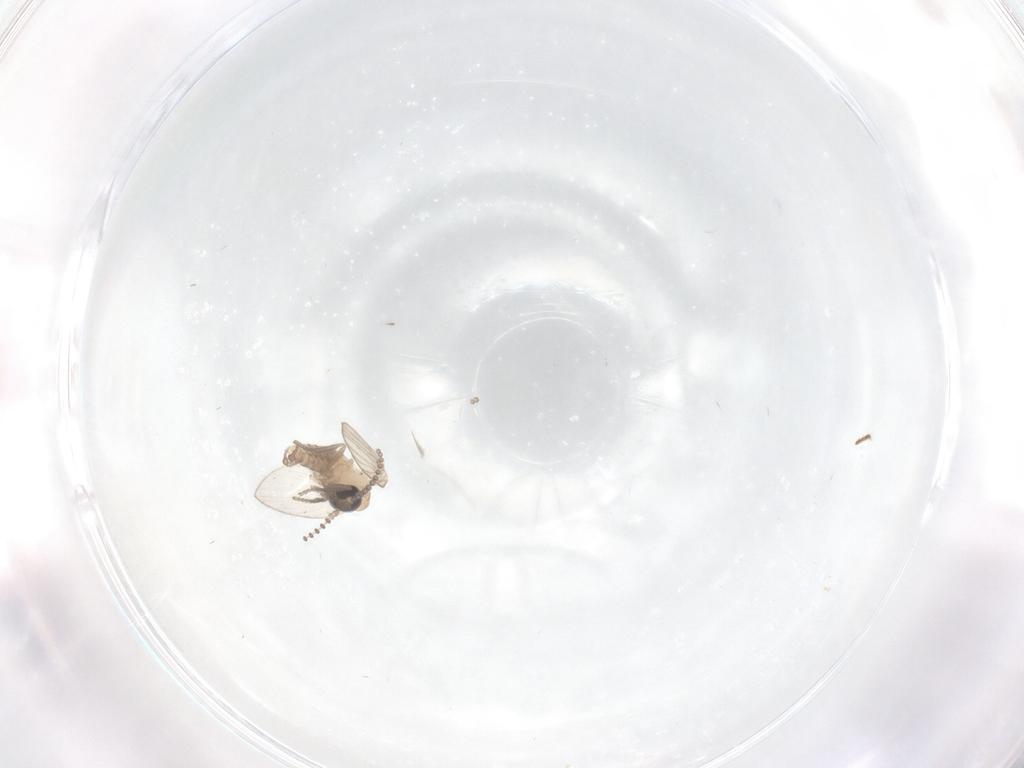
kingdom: Animalia
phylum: Arthropoda
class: Insecta
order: Diptera
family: Psychodidae
